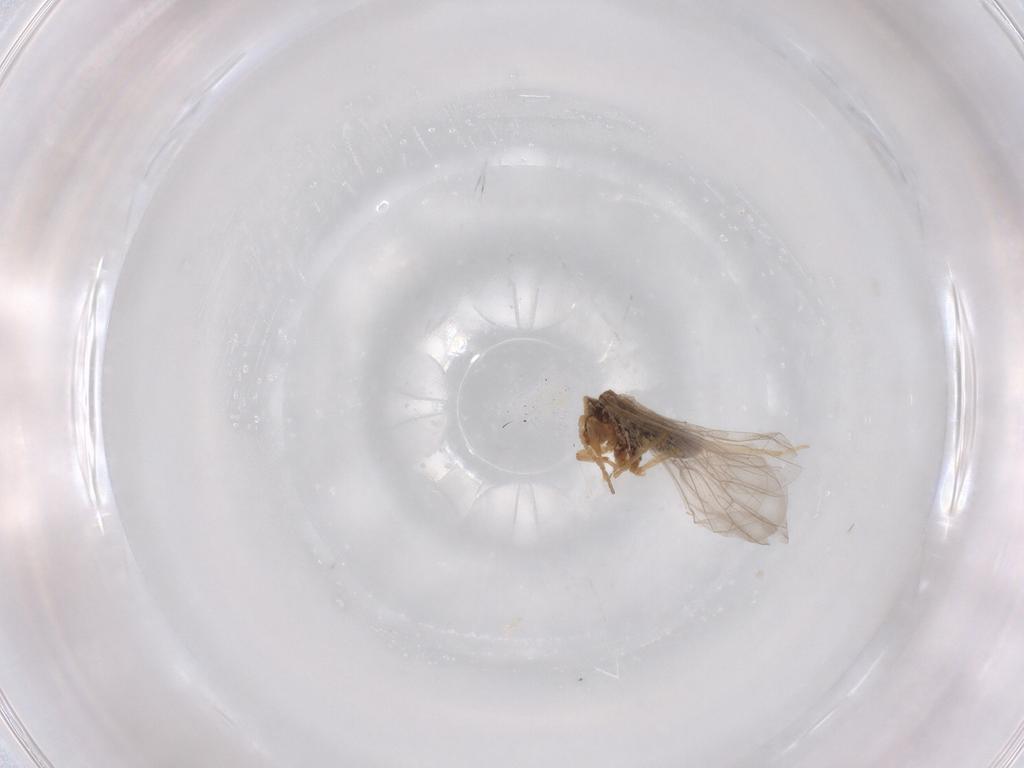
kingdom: Animalia
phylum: Arthropoda
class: Insecta
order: Neuroptera
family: Coniopterygidae
